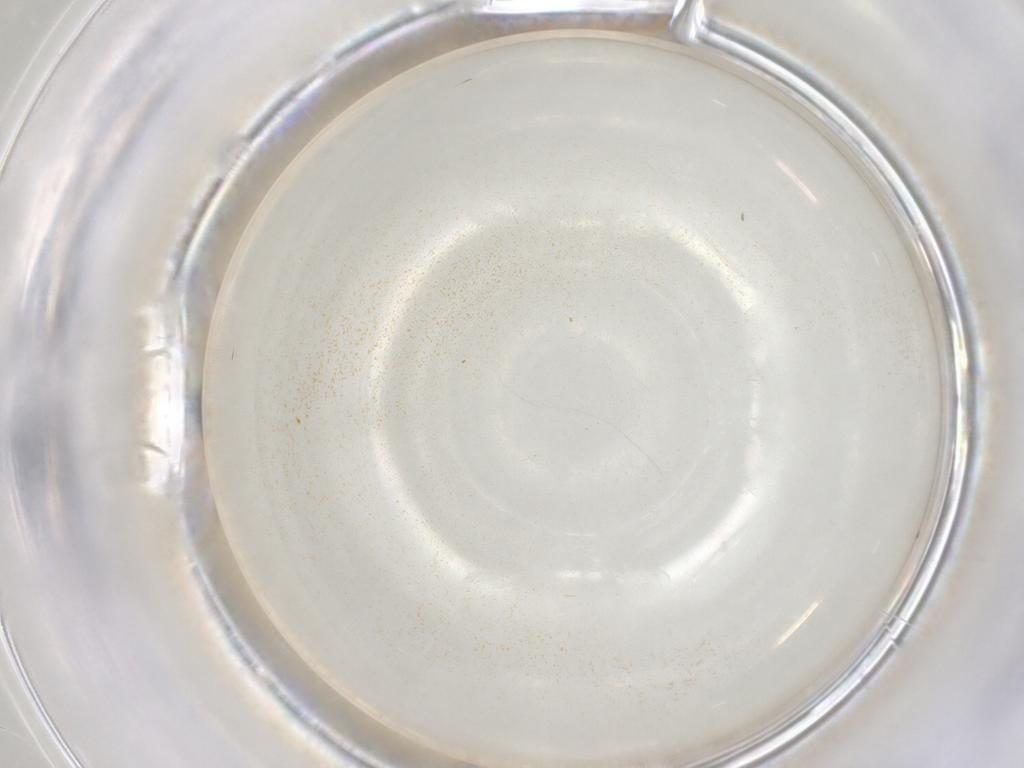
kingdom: Animalia
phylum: Arthropoda
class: Insecta
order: Hymenoptera
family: Aphelinidae
